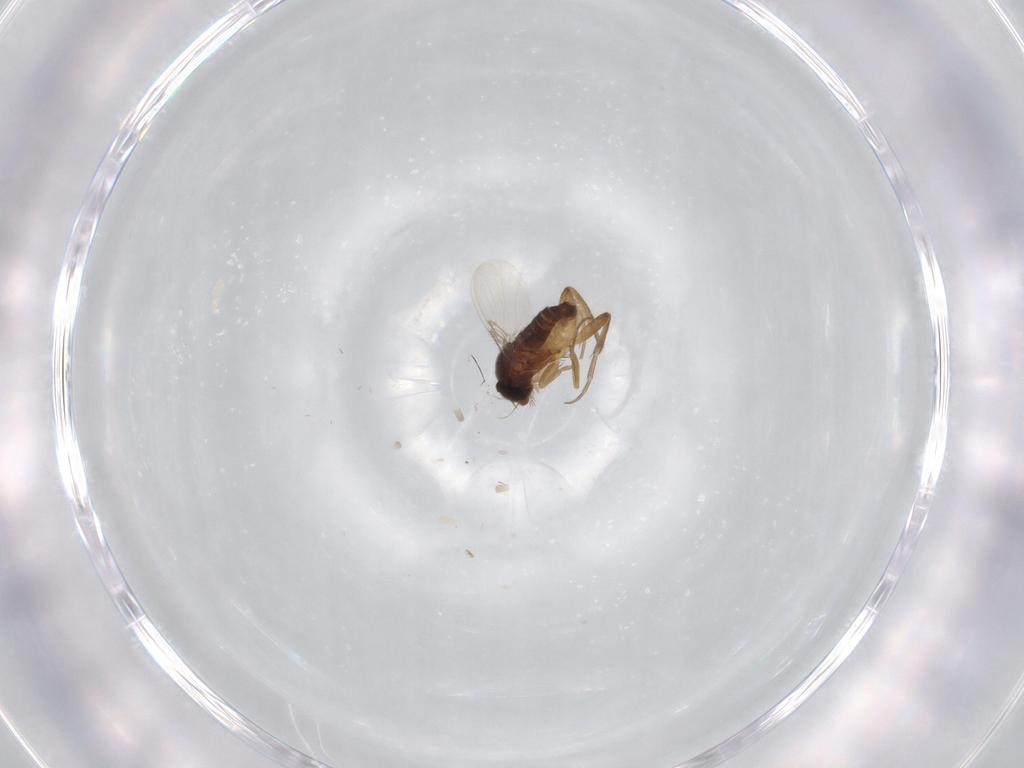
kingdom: Animalia
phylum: Arthropoda
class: Insecta
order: Diptera
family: Phoridae
